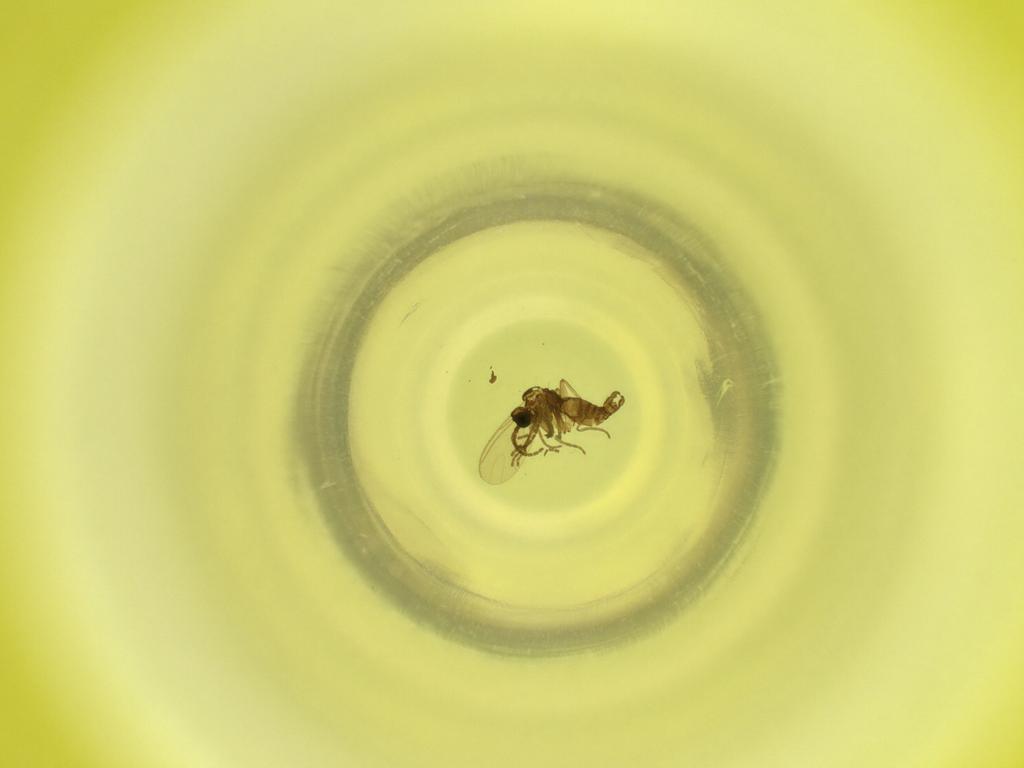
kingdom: Animalia
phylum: Arthropoda
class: Insecta
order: Diptera
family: Sciaridae
